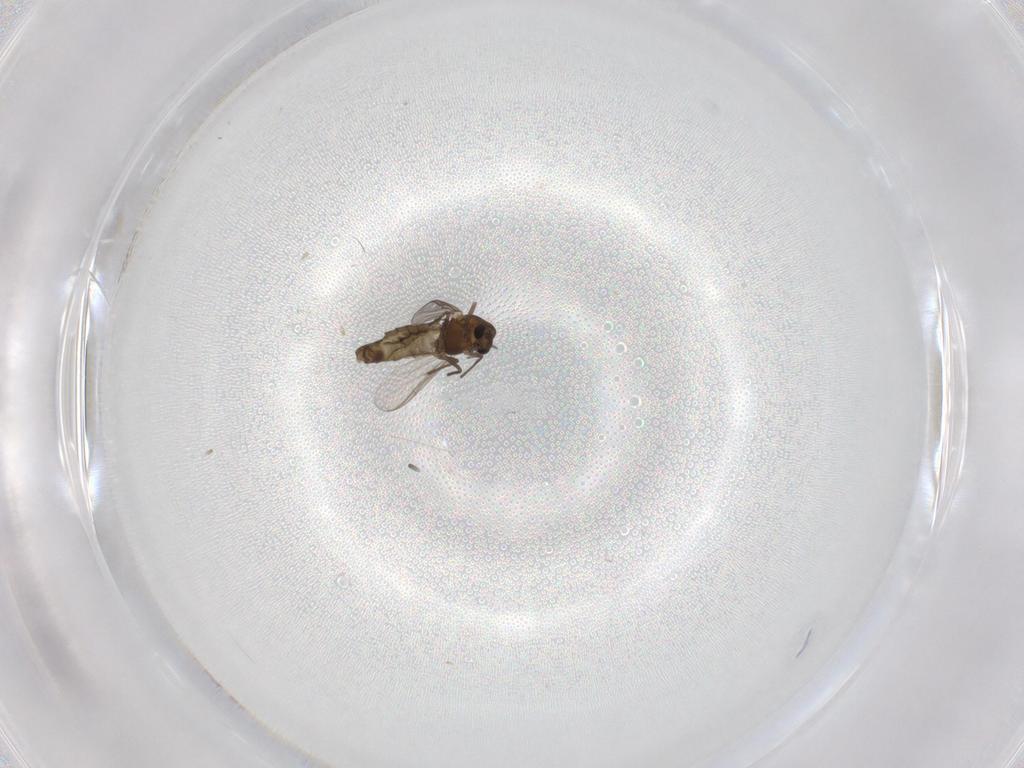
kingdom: Animalia
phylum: Arthropoda
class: Insecta
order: Diptera
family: Chironomidae
